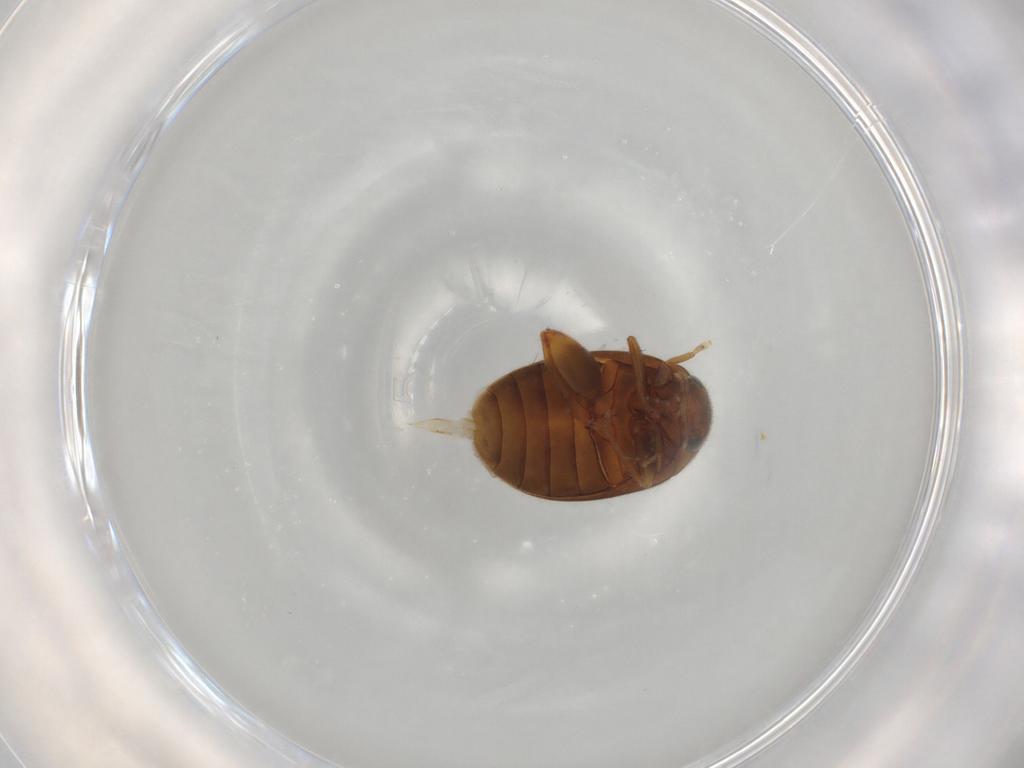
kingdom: Animalia
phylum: Arthropoda
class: Insecta
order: Coleoptera
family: Scirtidae
